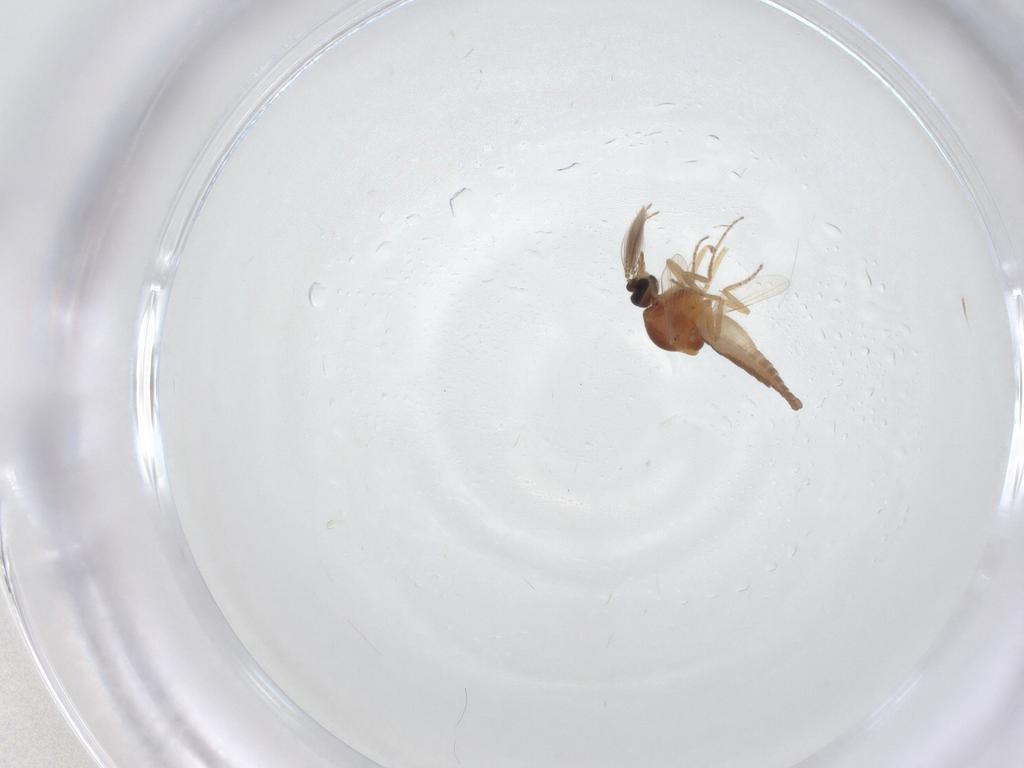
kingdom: Animalia
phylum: Arthropoda
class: Insecta
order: Diptera
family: Ceratopogonidae
